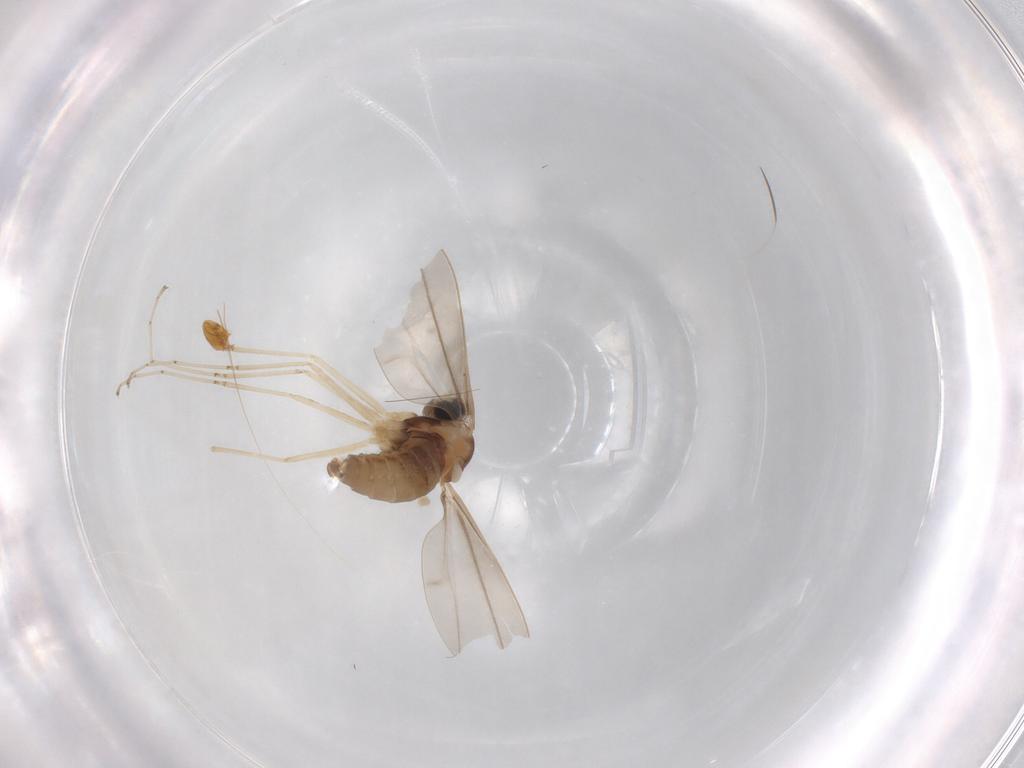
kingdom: Animalia
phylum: Arthropoda
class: Insecta
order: Diptera
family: Cecidomyiidae
